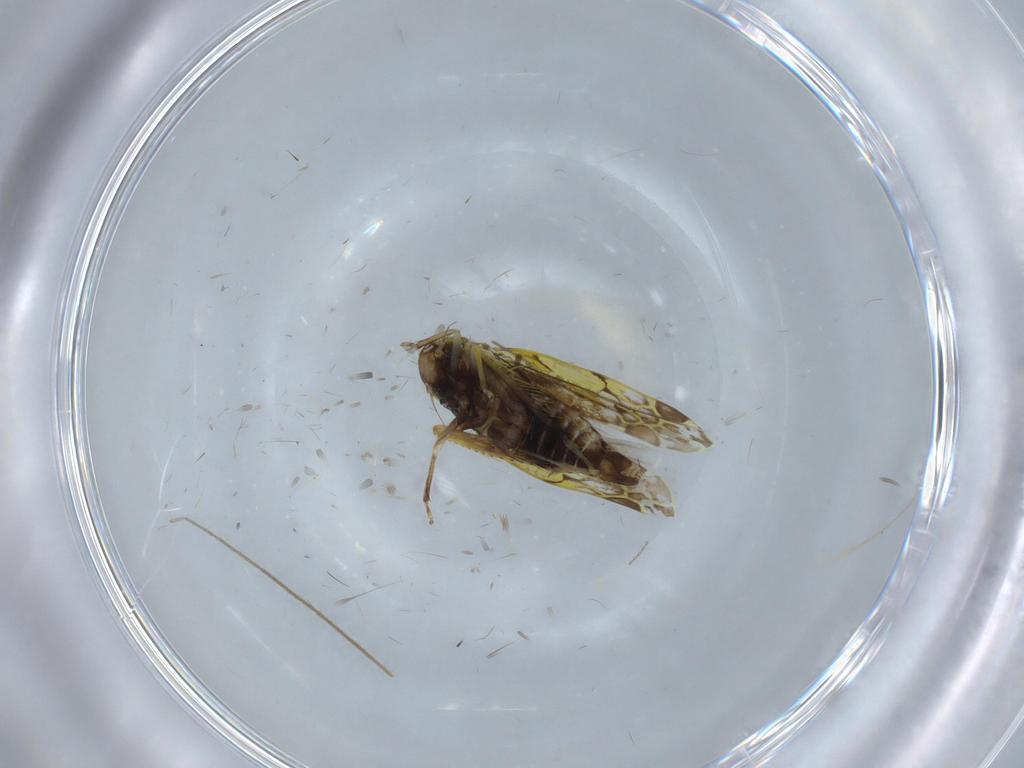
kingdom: Animalia
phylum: Arthropoda
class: Insecta
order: Hemiptera
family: Cicadellidae
